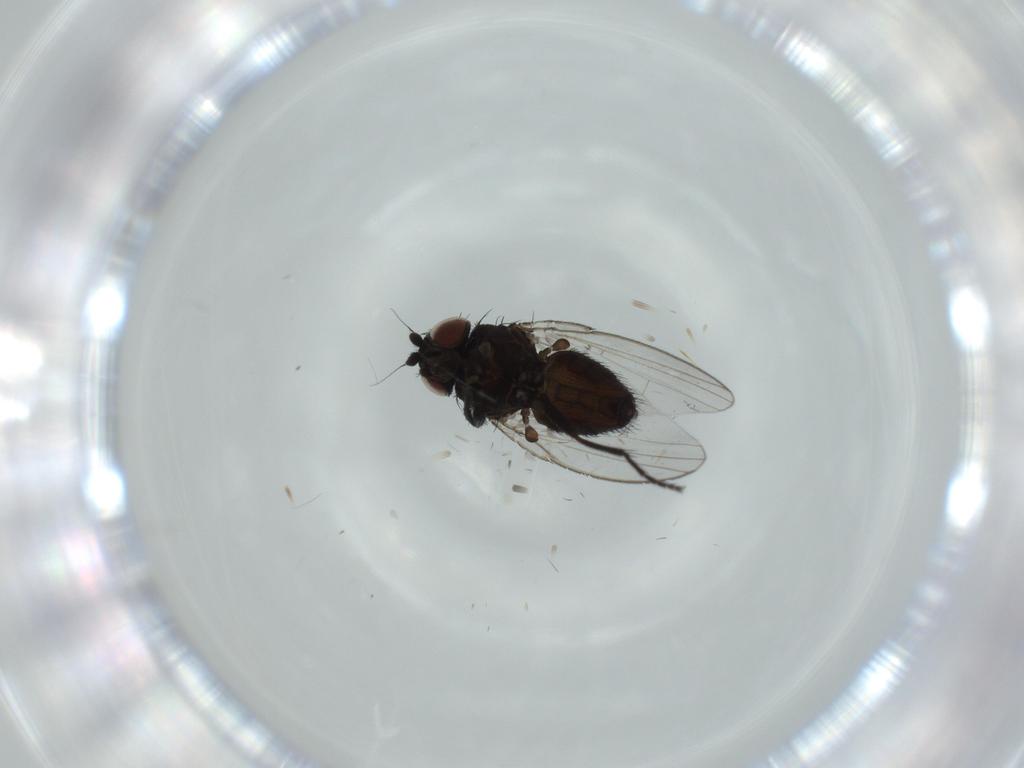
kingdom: Animalia
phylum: Arthropoda
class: Insecta
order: Diptera
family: Milichiidae
